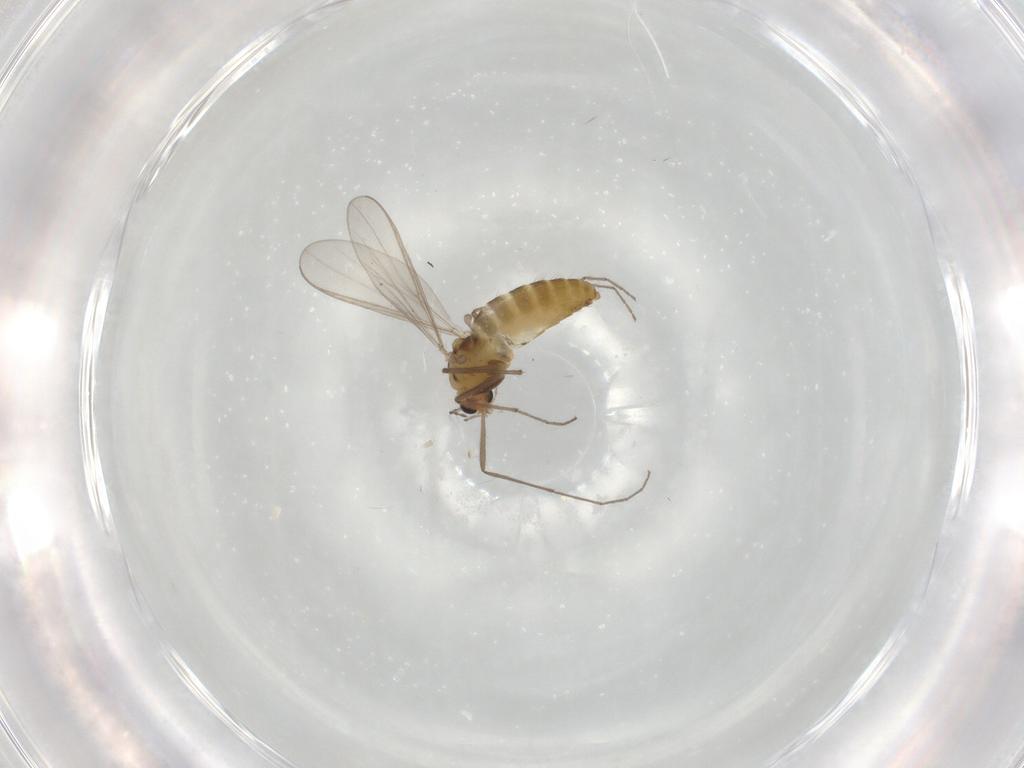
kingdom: Animalia
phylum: Arthropoda
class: Insecta
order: Diptera
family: Chironomidae
